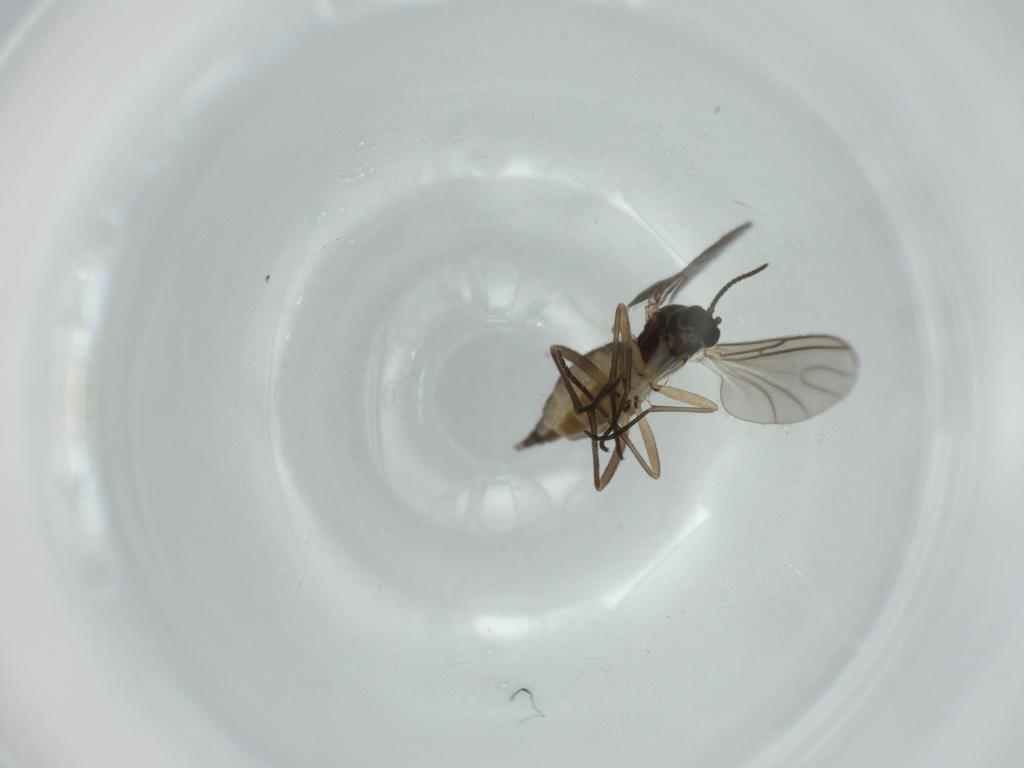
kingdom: Animalia
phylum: Arthropoda
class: Insecta
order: Diptera
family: Sciaridae
